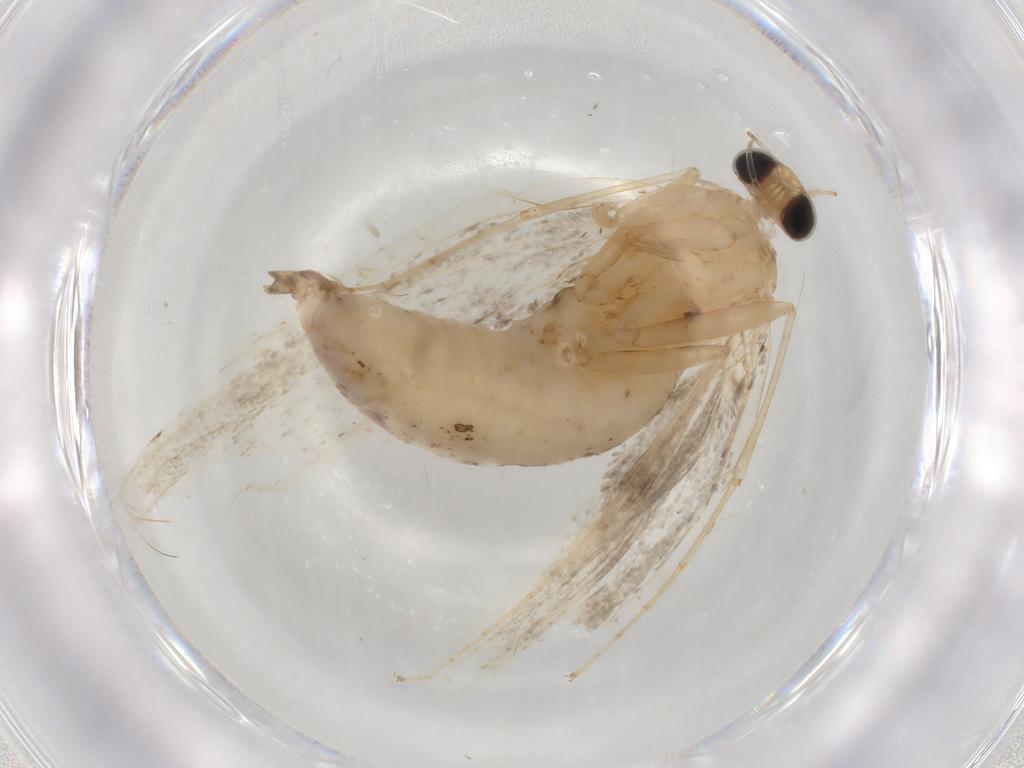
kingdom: Animalia
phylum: Arthropoda
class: Insecta
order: Lepidoptera
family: Noctuidae
